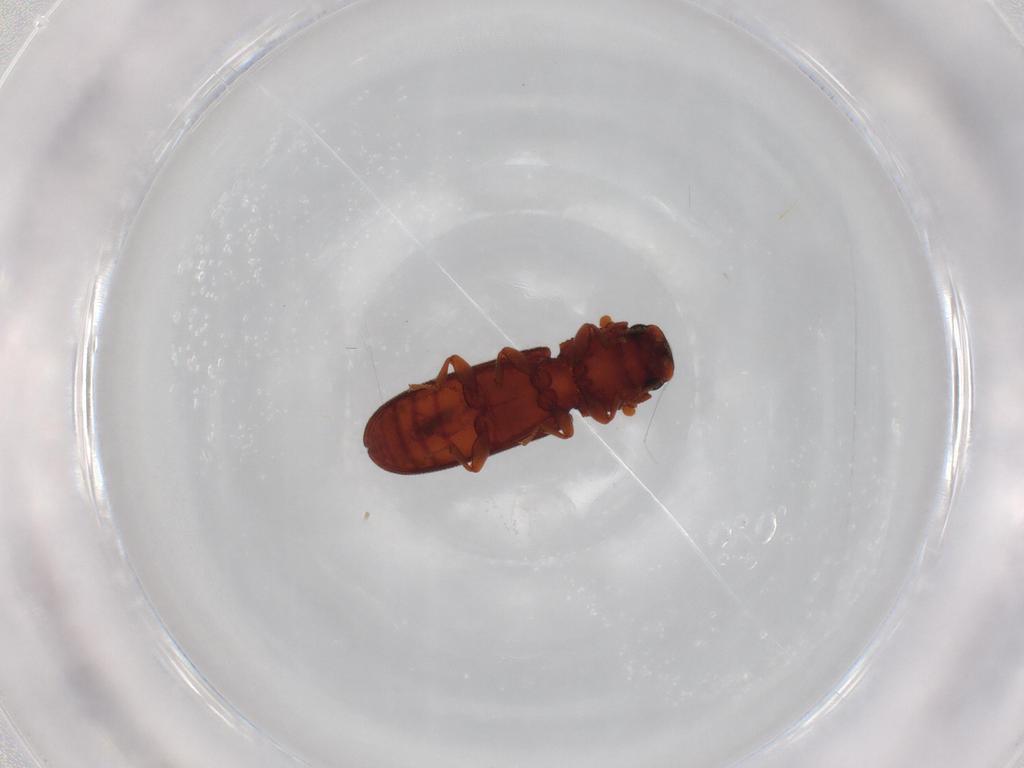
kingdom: Animalia
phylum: Arthropoda
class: Insecta
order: Coleoptera
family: Zopheridae
